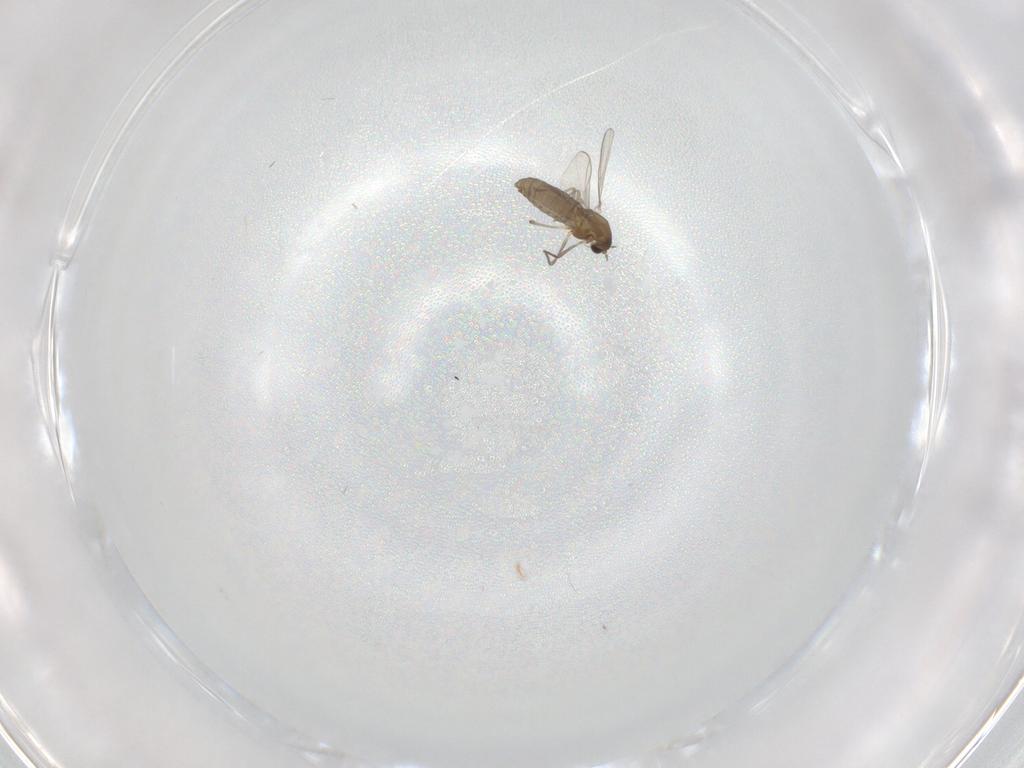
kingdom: Animalia
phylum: Arthropoda
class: Insecta
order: Diptera
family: Chironomidae
